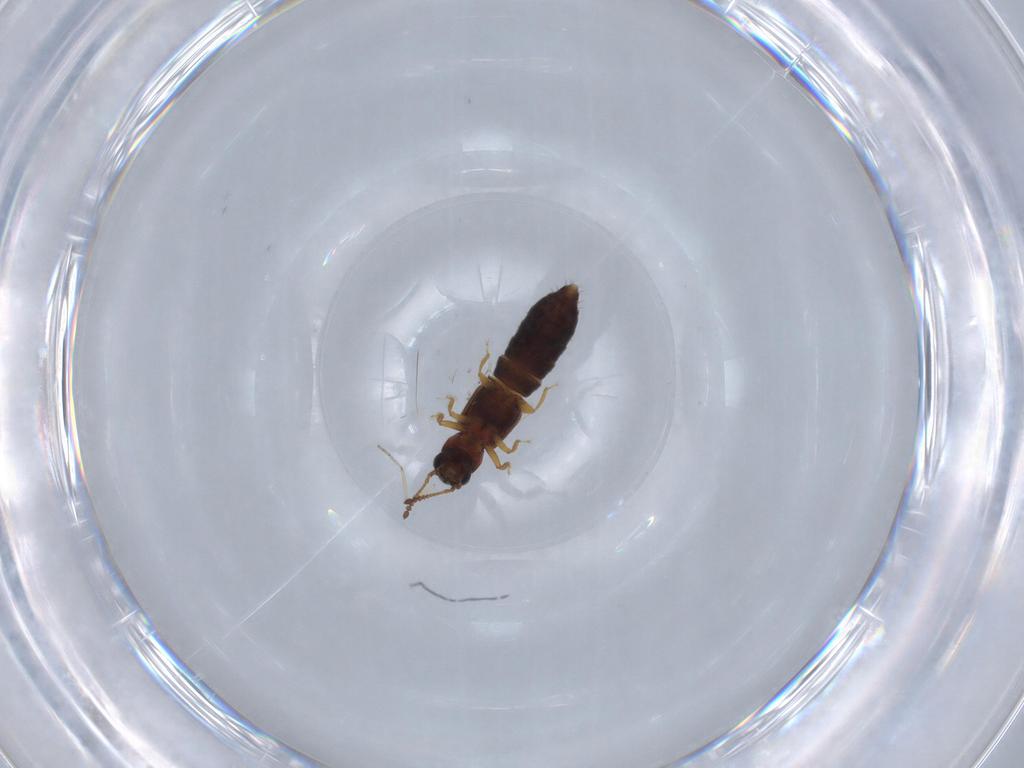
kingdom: Animalia
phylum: Arthropoda
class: Insecta
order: Coleoptera
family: Staphylinidae
